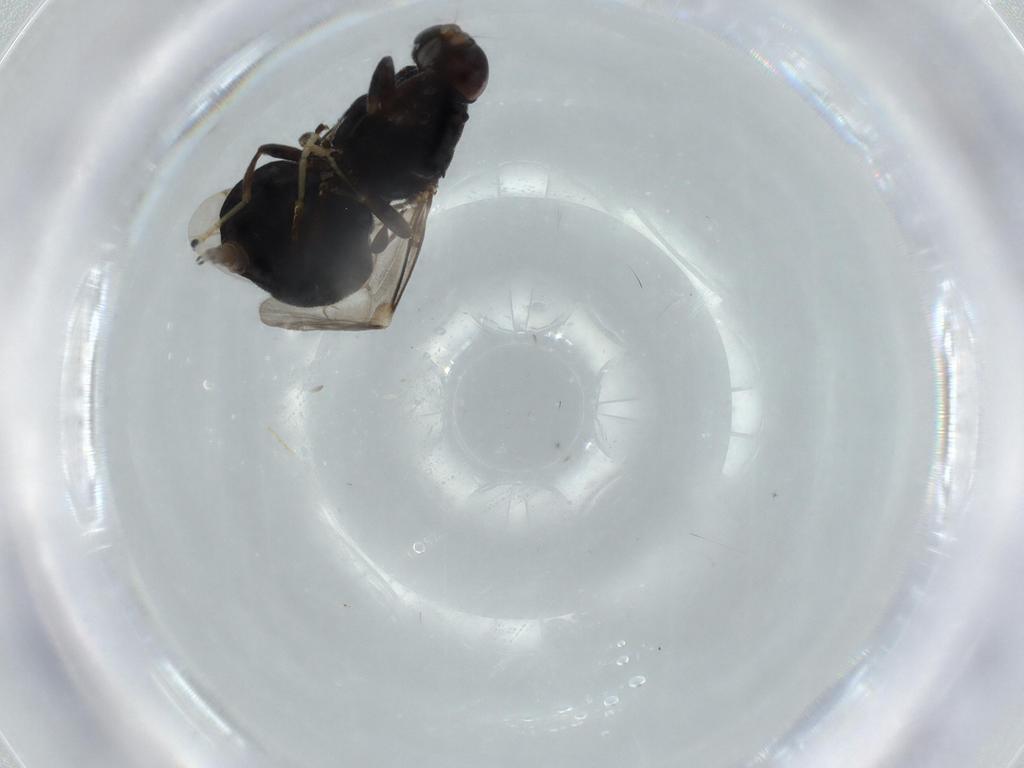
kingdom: Animalia
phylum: Arthropoda
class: Insecta
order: Diptera
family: Stratiomyidae
